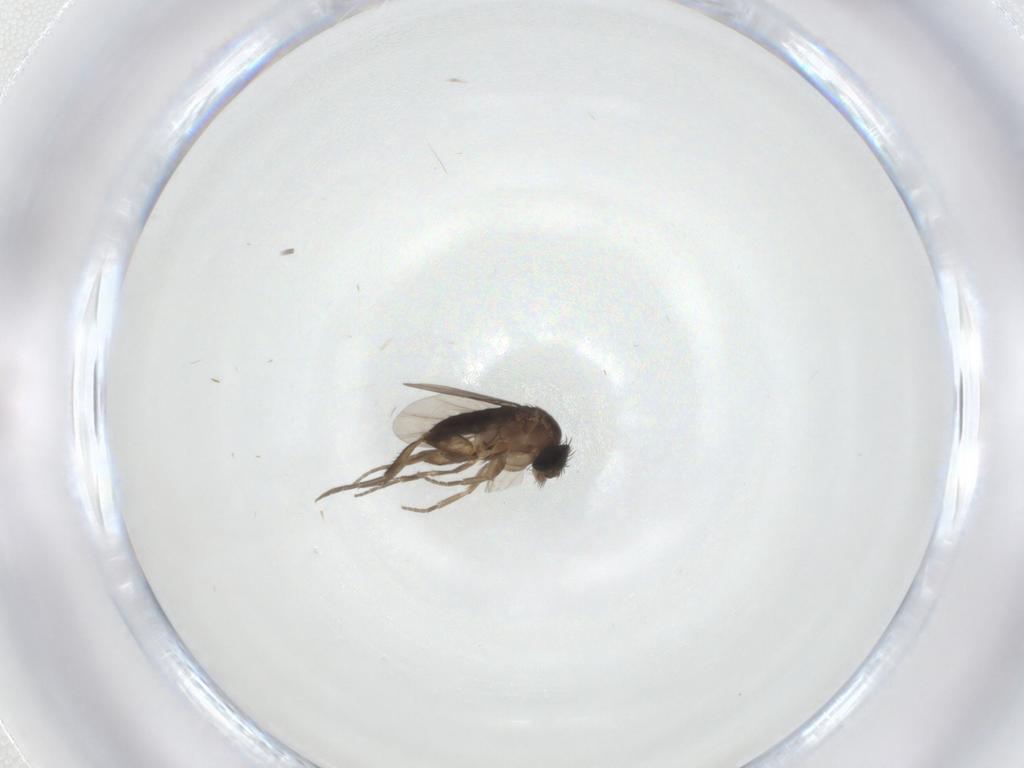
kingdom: Animalia
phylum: Arthropoda
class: Insecta
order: Diptera
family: Phoridae
